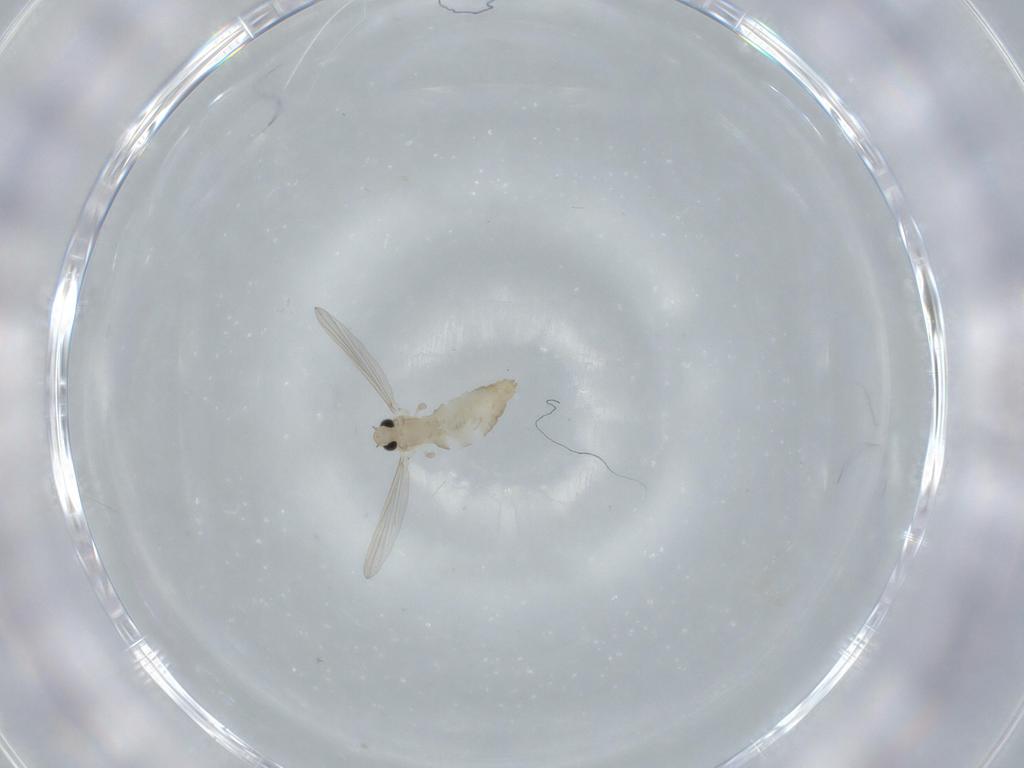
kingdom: Animalia
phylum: Arthropoda
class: Insecta
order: Diptera
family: Chironomidae
